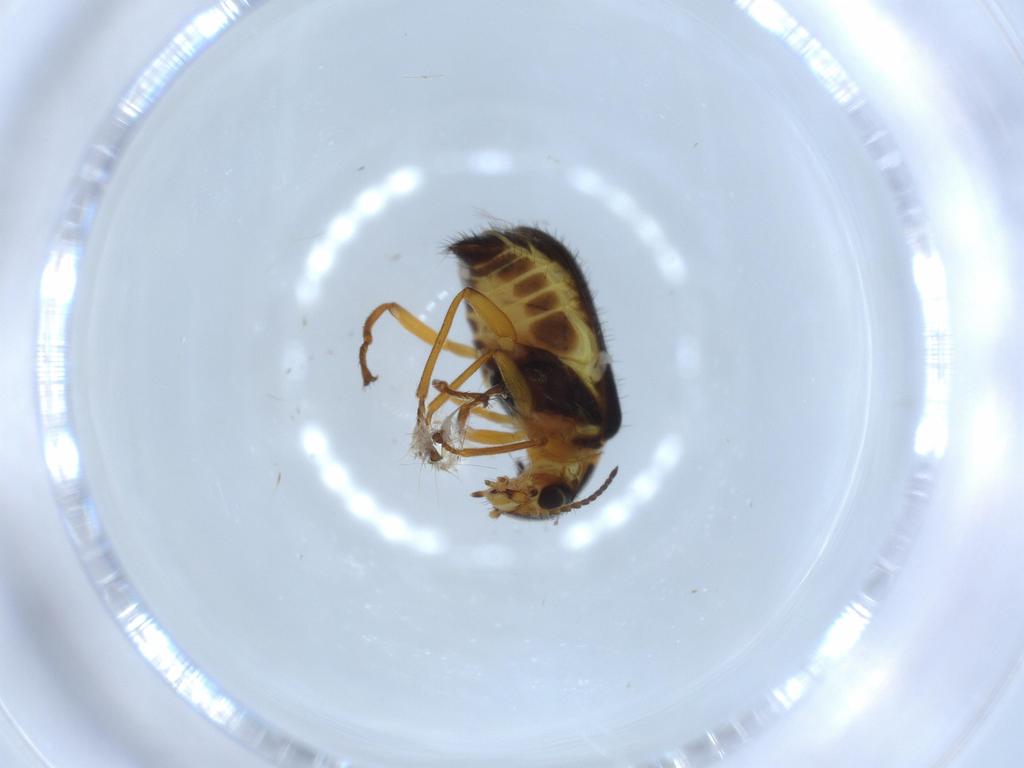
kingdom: Animalia
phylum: Arthropoda
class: Insecta
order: Coleoptera
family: Melyridae
